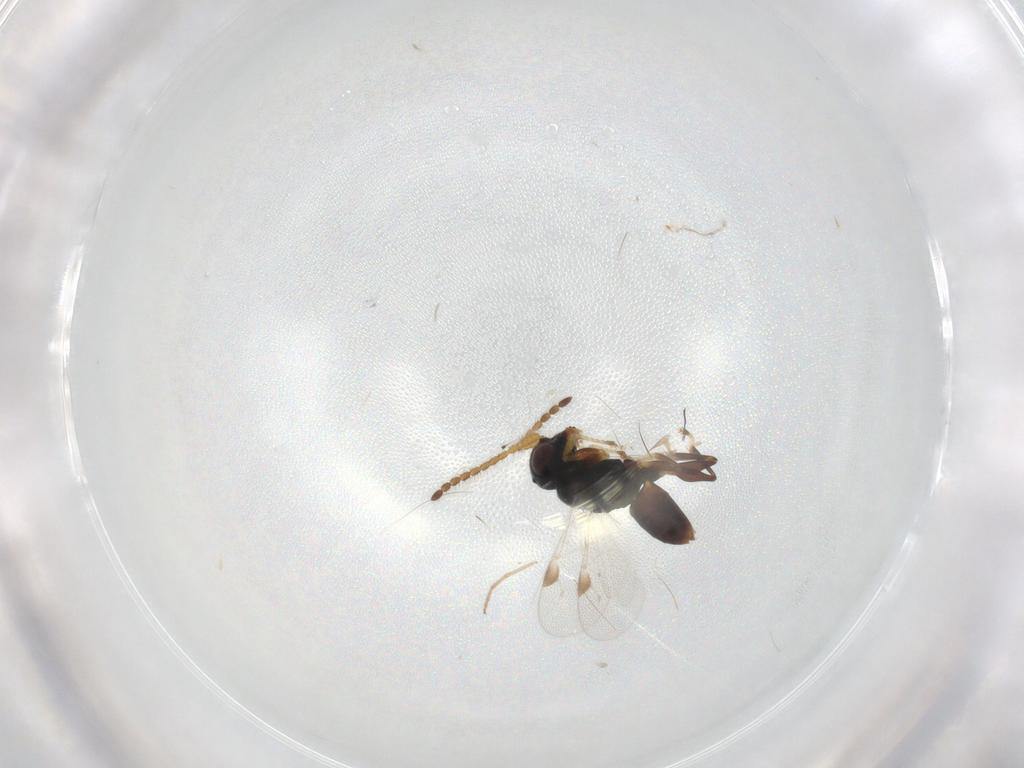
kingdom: Animalia
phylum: Arthropoda
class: Insecta
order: Hymenoptera
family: Dryinidae
